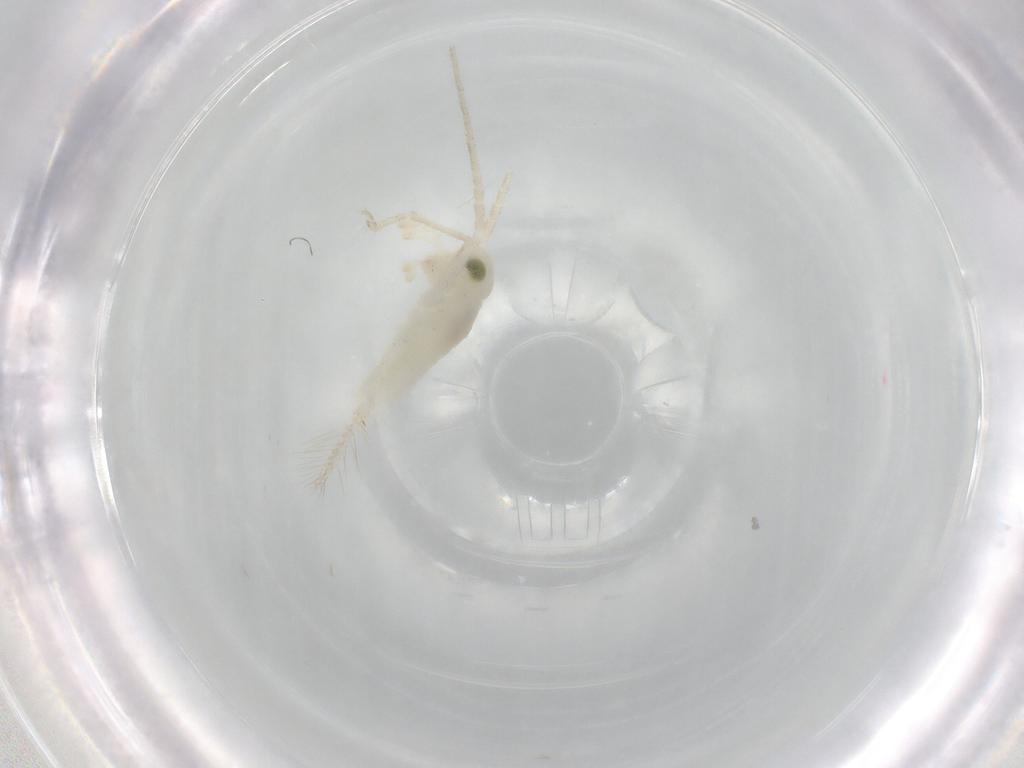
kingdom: Animalia
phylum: Arthropoda
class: Insecta
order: Orthoptera
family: Trigonidiidae
